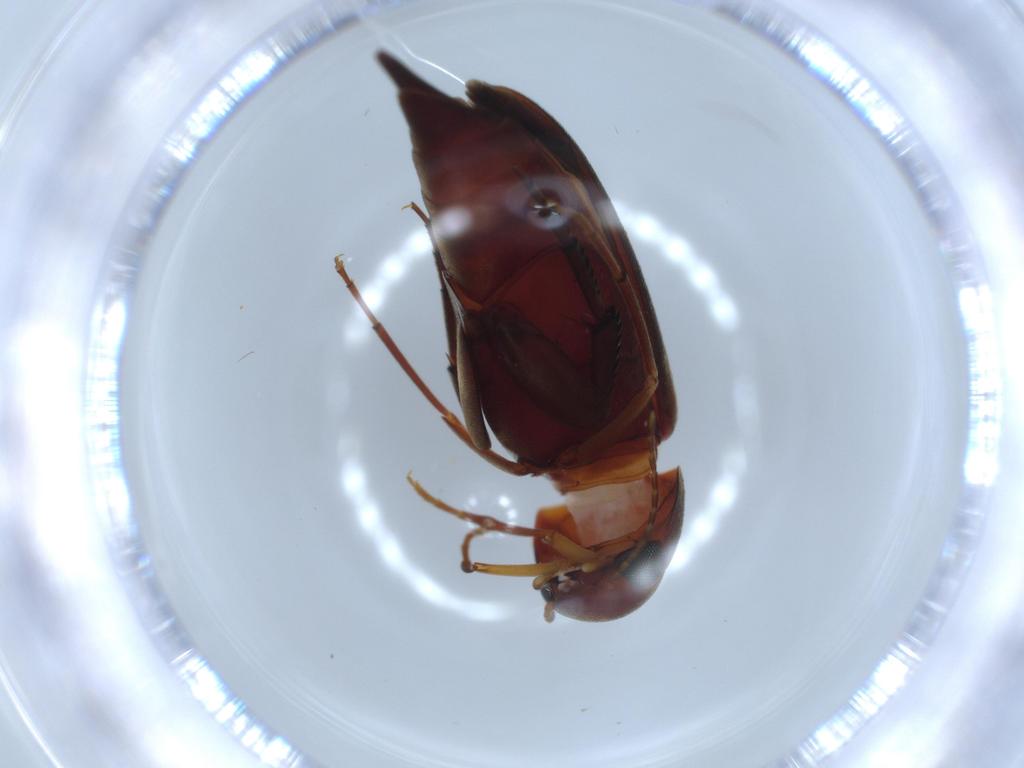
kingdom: Animalia
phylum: Arthropoda
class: Insecta
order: Coleoptera
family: Mordellidae
